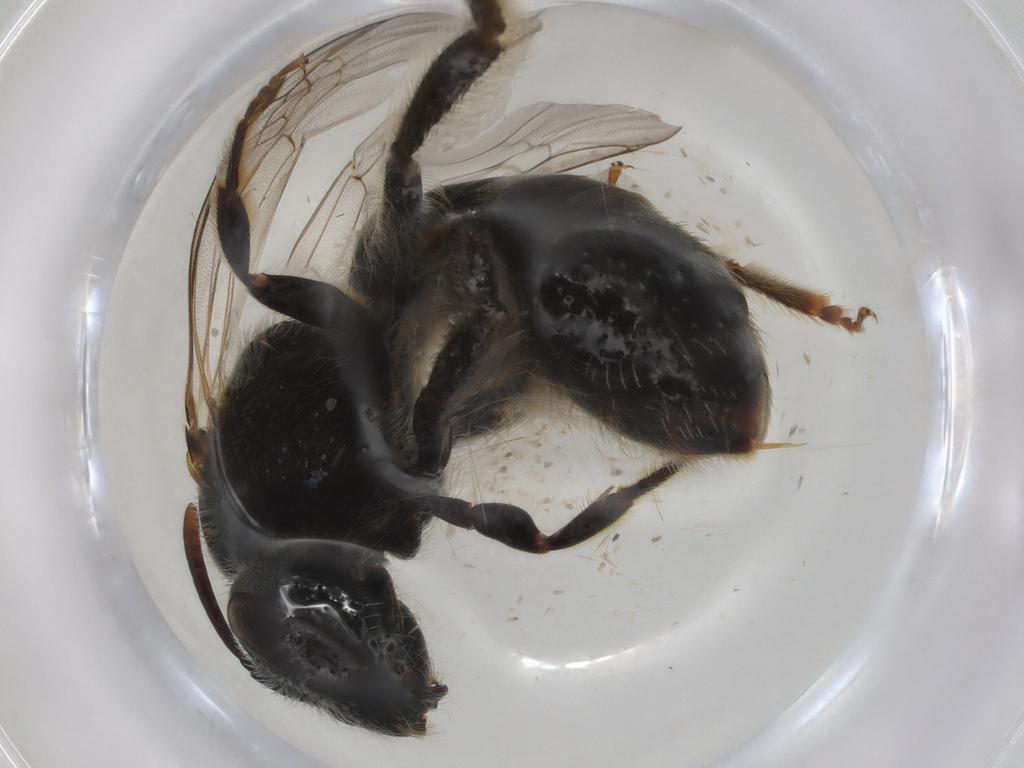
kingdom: Animalia
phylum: Arthropoda
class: Insecta
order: Hymenoptera
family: Halictidae
